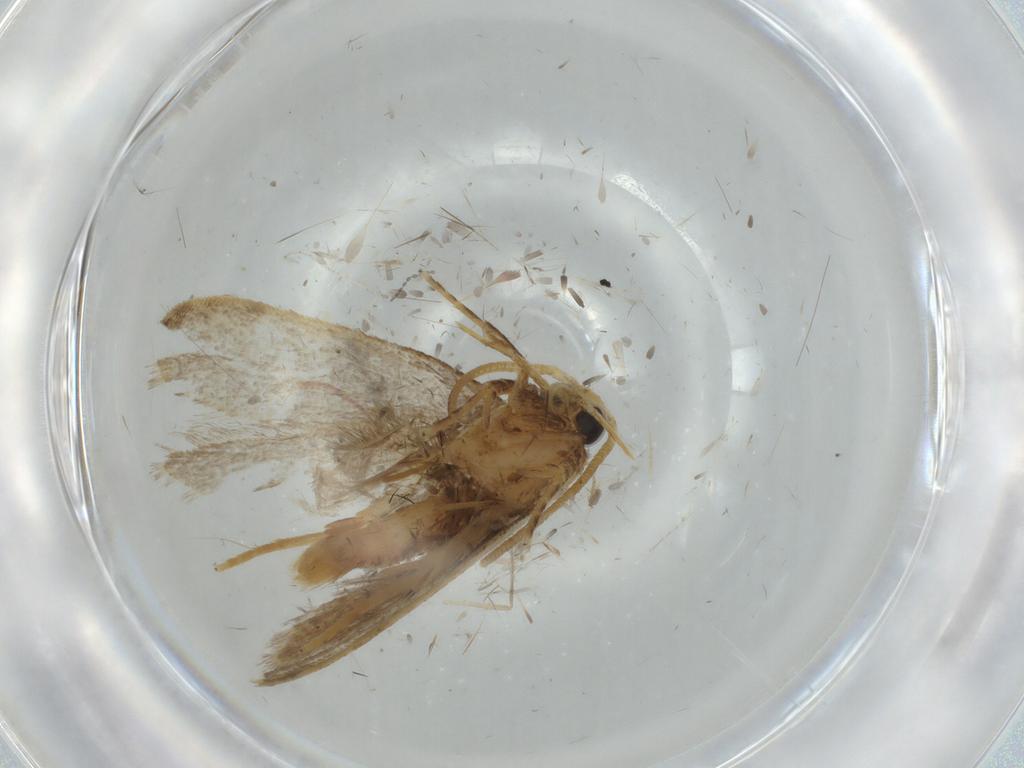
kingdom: Animalia
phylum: Arthropoda
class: Insecta
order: Lepidoptera
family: Autostichidae
